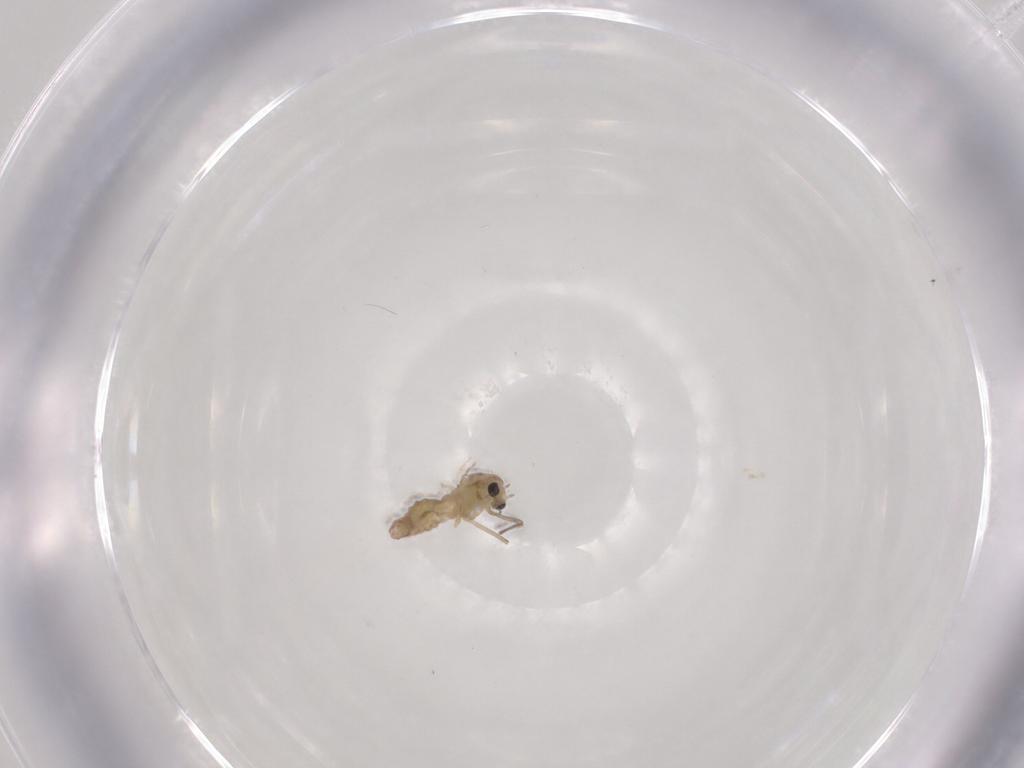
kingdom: Animalia
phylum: Arthropoda
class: Insecta
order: Diptera
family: Chironomidae
